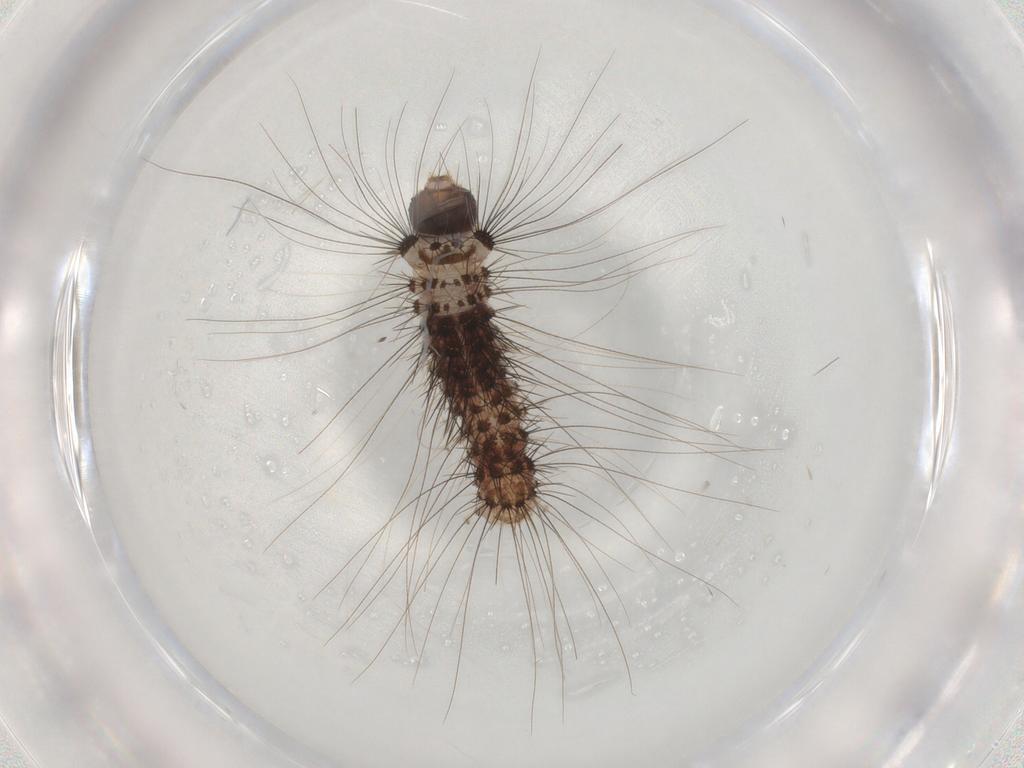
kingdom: Animalia
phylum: Arthropoda
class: Insecta
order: Lepidoptera
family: Scythrididae
